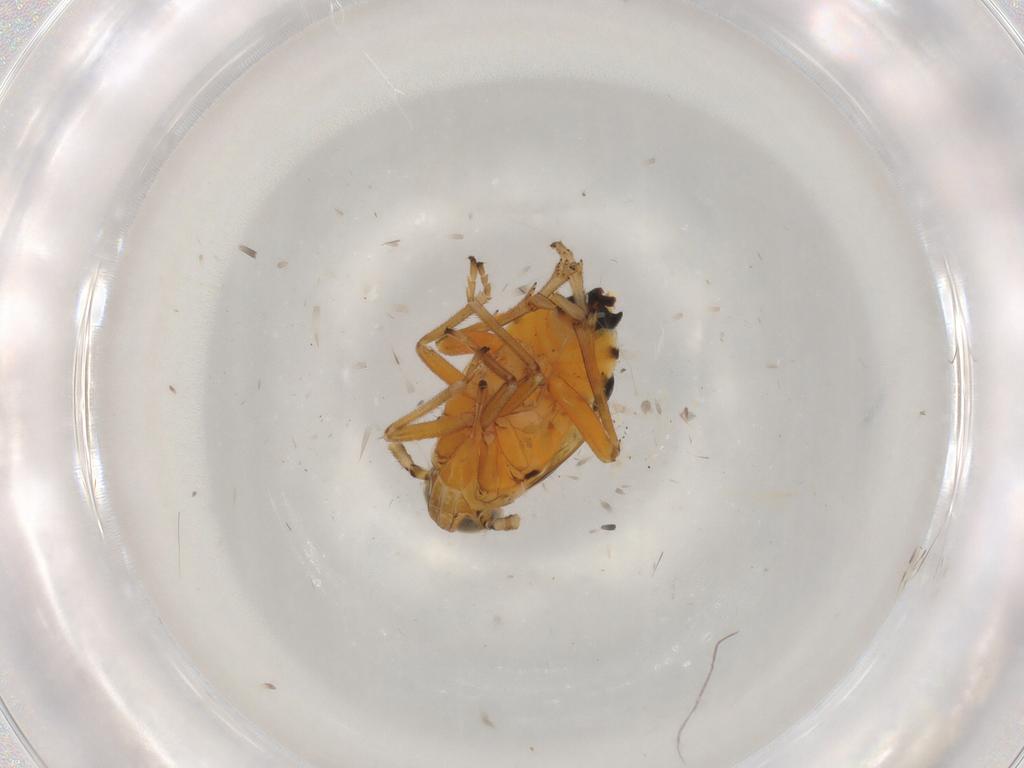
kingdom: Animalia
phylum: Arthropoda
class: Insecta
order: Hemiptera
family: Delphacidae
